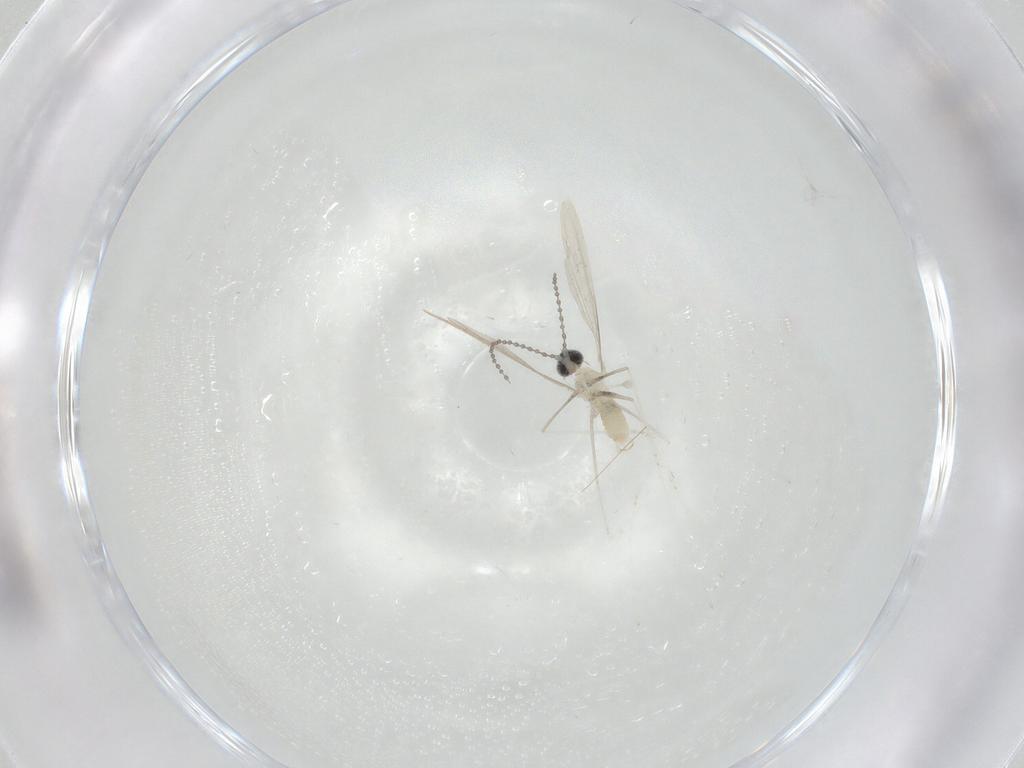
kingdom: Animalia
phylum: Arthropoda
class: Insecta
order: Diptera
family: Cecidomyiidae
